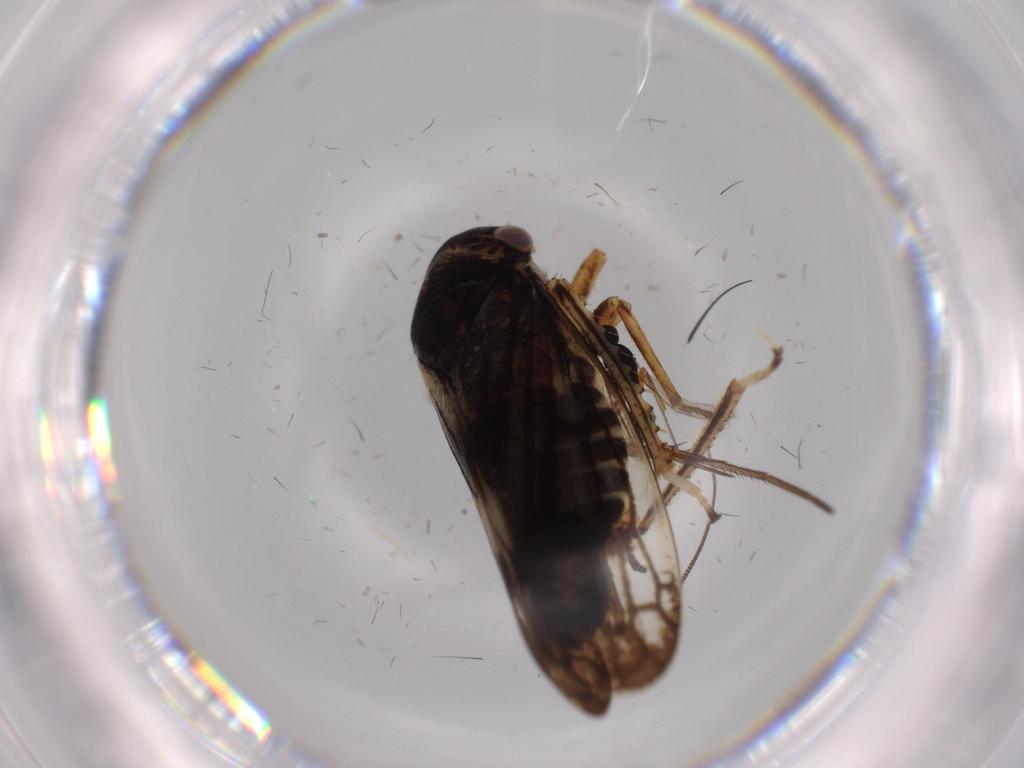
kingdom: Animalia
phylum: Arthropoda
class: Insecta
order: Hemiptera
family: Cicadellidae
